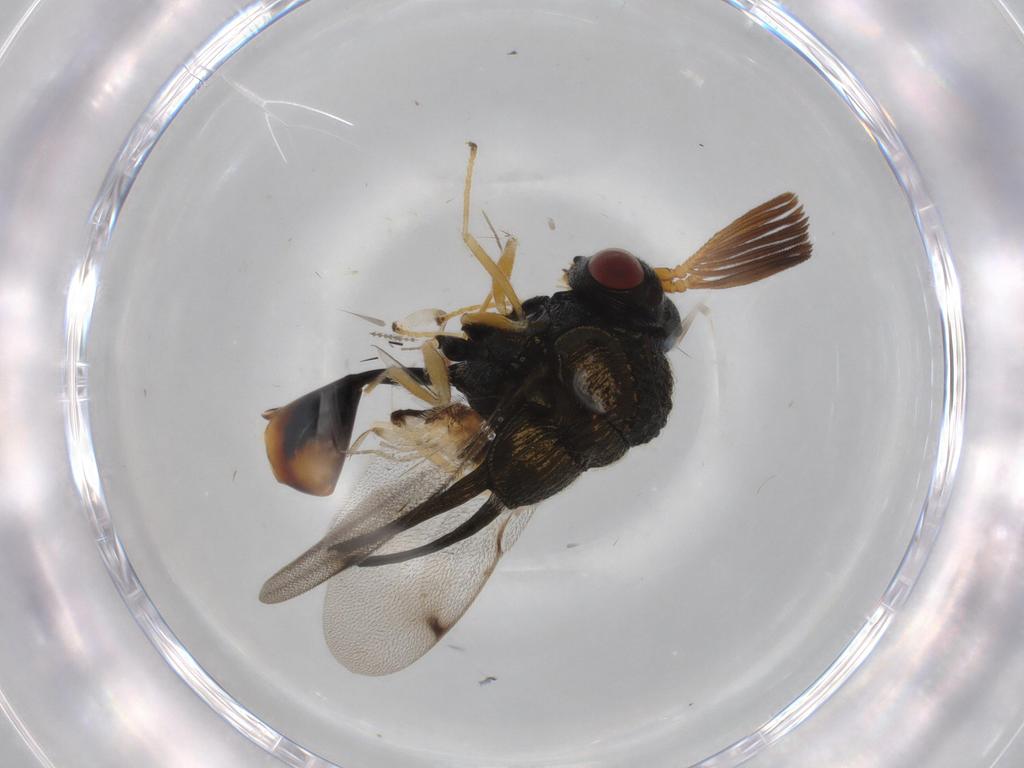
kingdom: Animalia
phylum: Arthropoda
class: Insecta
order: Diptera
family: Phoridae
